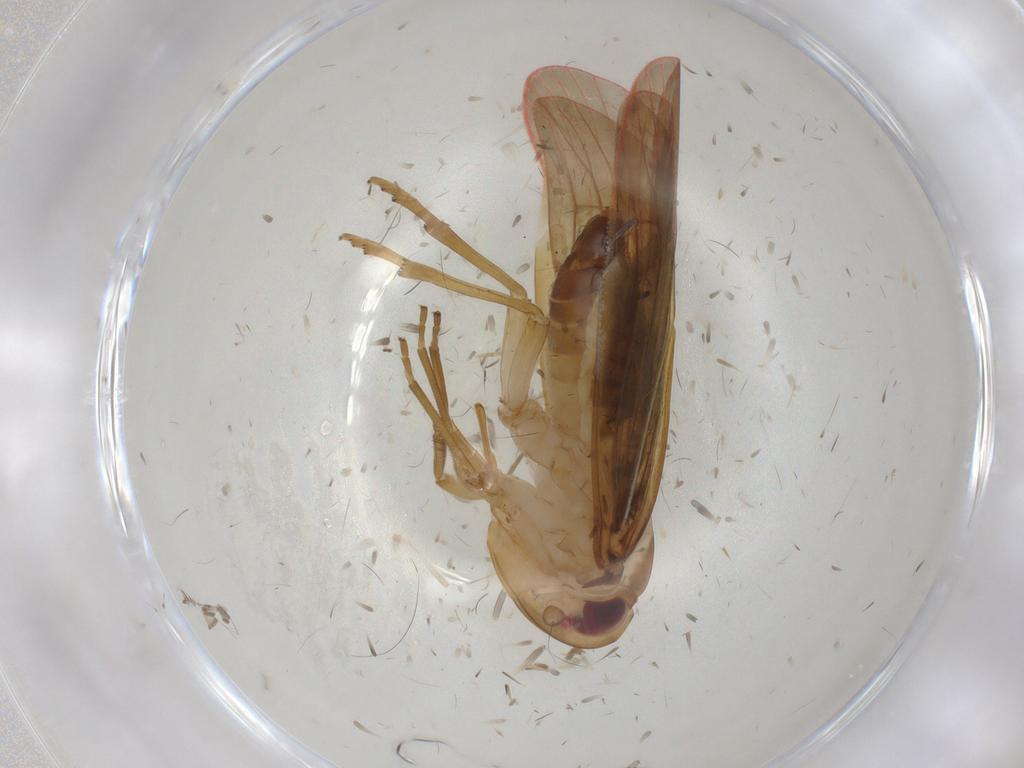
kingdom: Animalia
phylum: Arthropoda
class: Insecta
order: Hemiptera
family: Achilidae
